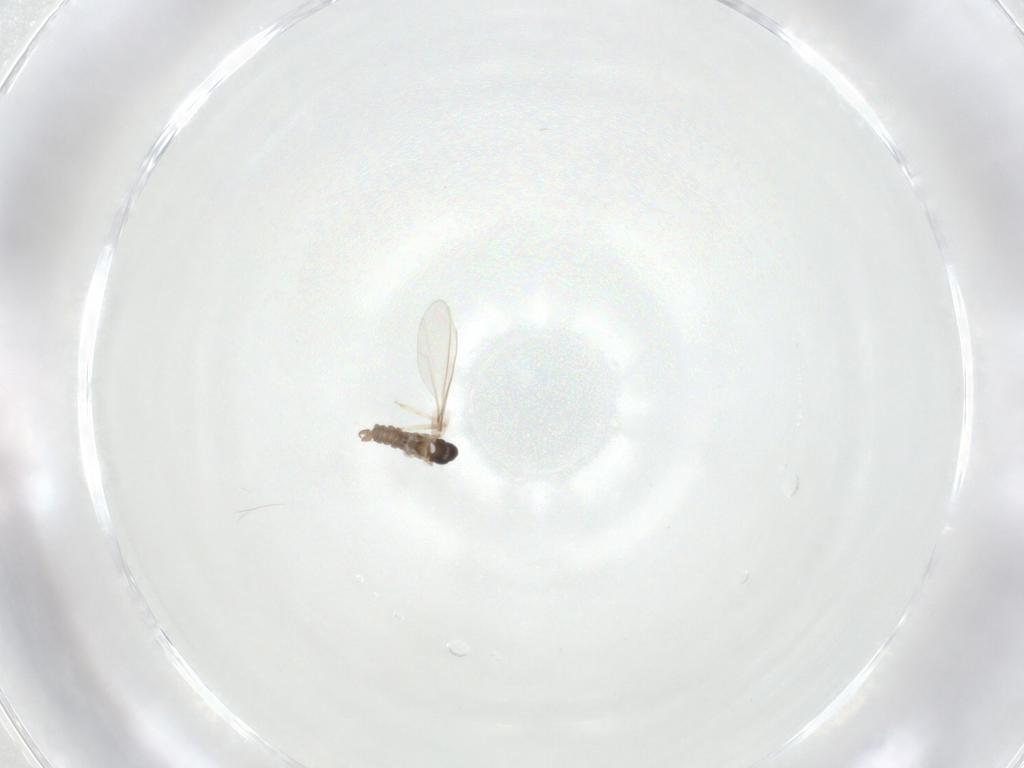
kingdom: Animalia
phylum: Arthropoda
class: Insecta
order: Diptera
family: Cecidomyiidae
